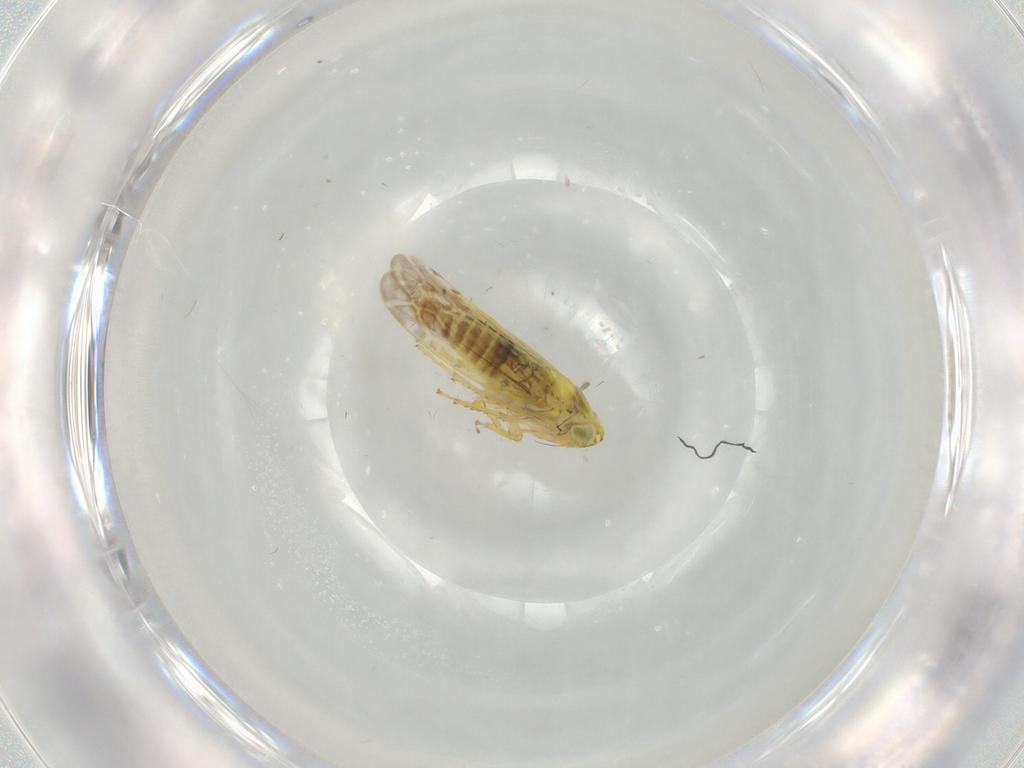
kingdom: Animalia
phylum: Arthropoda
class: Insecta
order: Hemiptera
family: Cicadellidae
